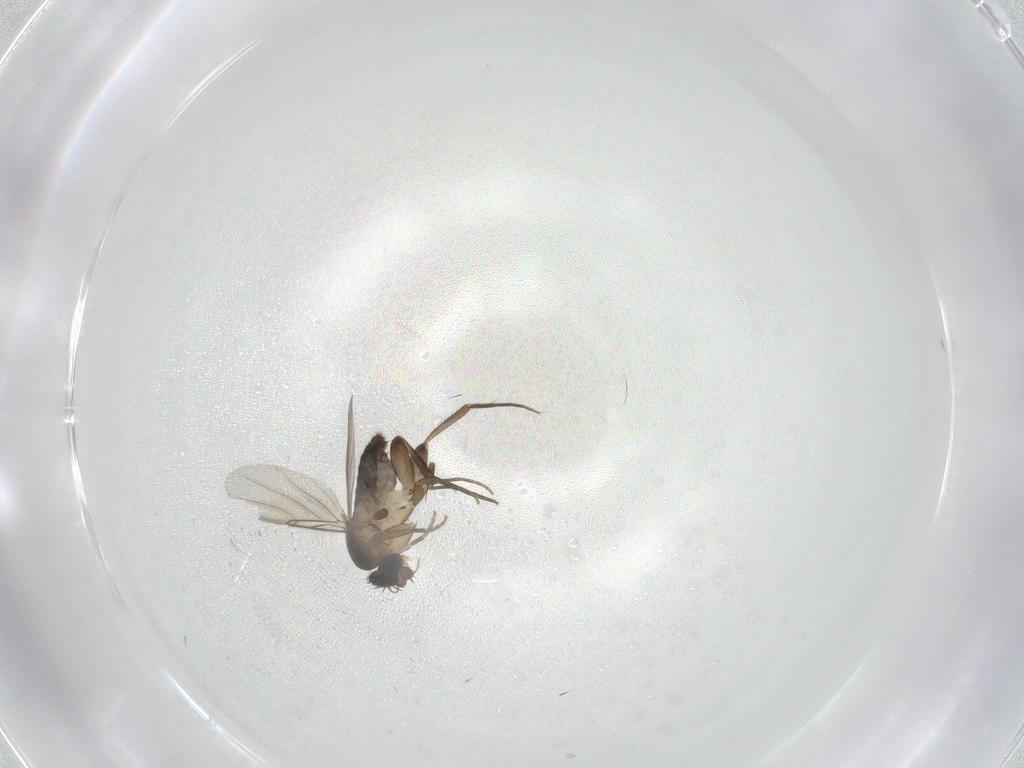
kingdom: Animalia
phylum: Arthropoda
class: Insecta
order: Diptera
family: Phoridae
